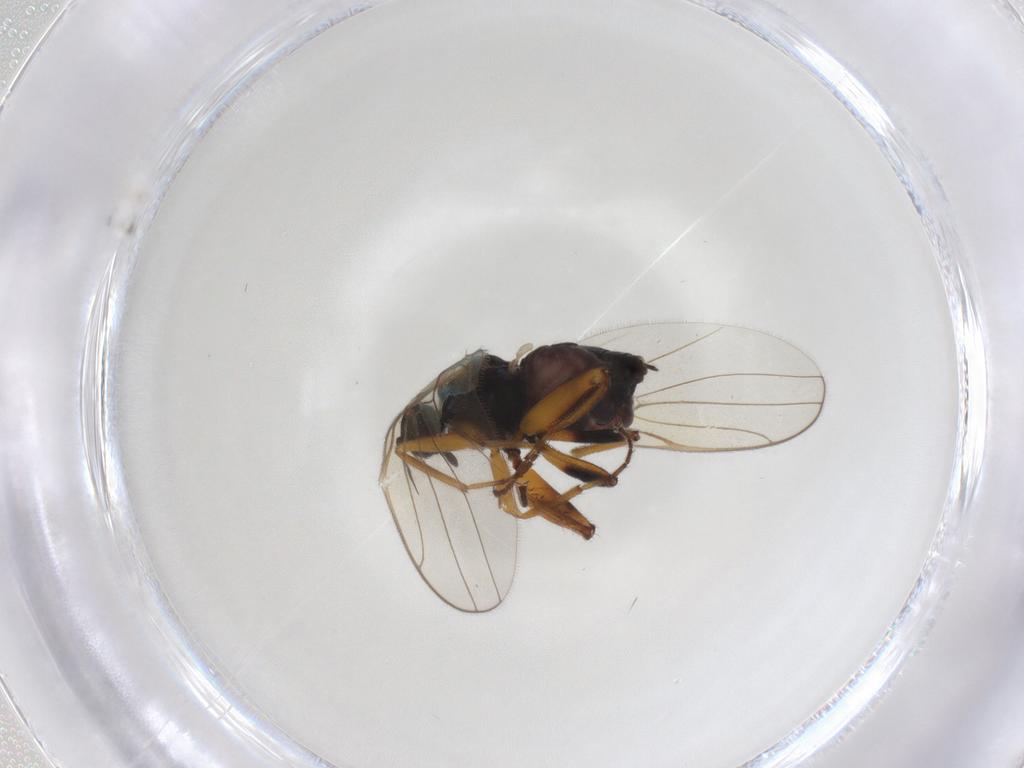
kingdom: Animalia
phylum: Arthropoda
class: Insecta
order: Diptera
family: Hybotidae
